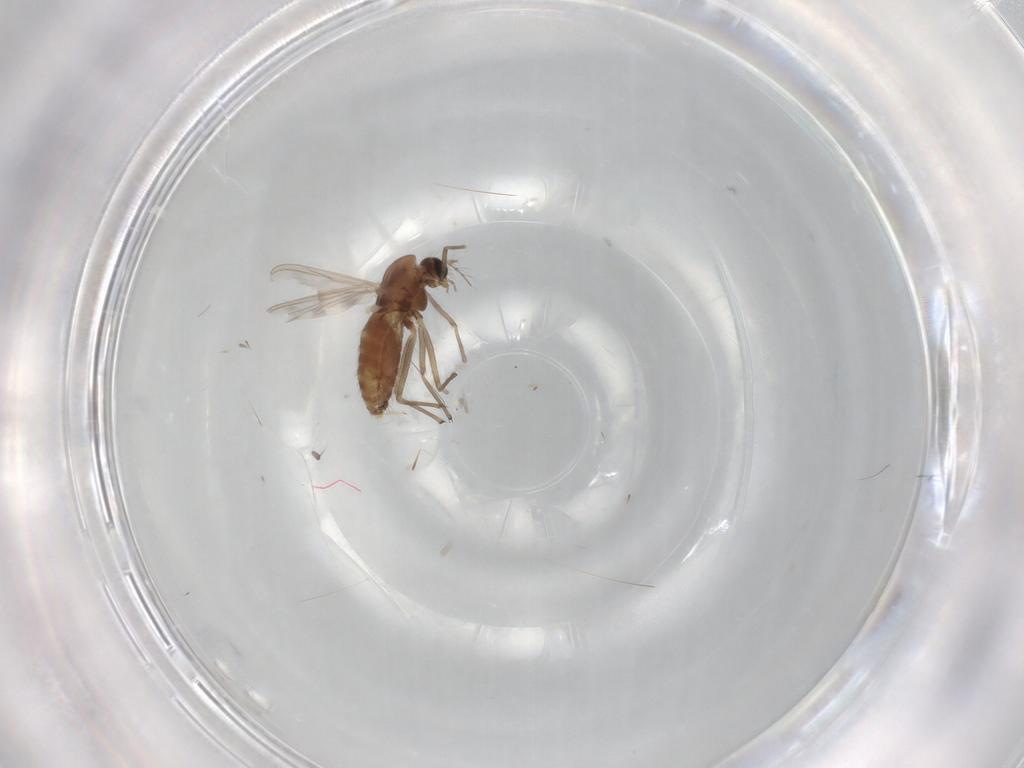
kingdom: Animalia
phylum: Arthropoda
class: Insecta
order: Diptera
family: Chironomidae
